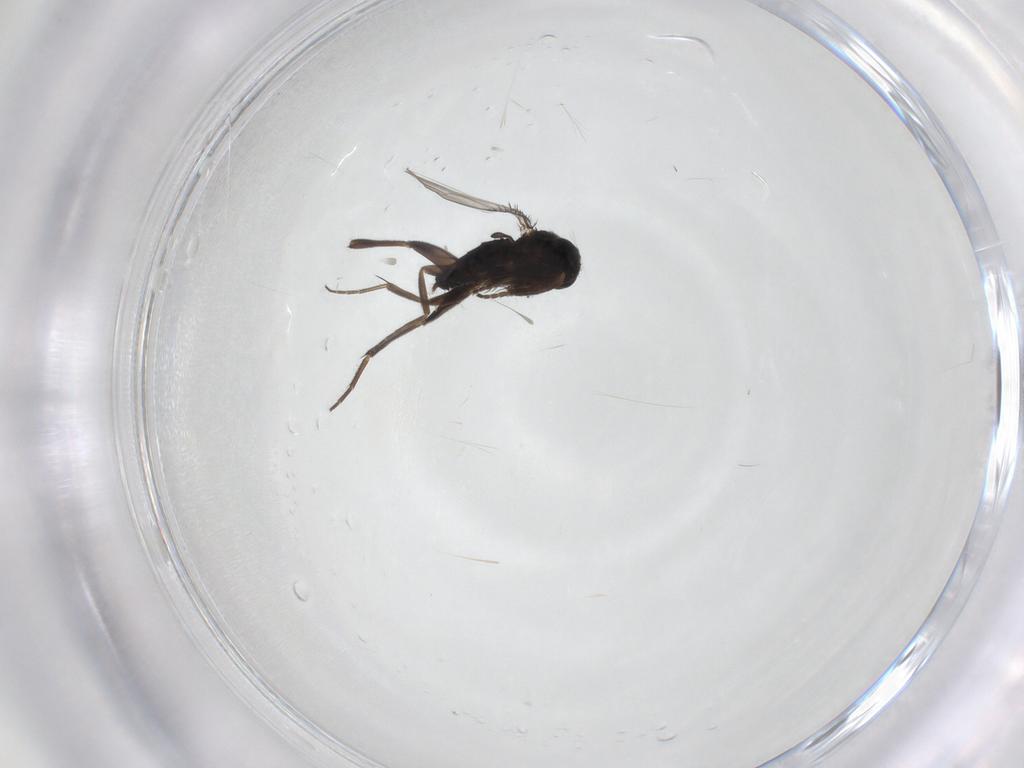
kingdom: Animalia
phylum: Arthropoda
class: Insecta
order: Diptera
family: Phoridae
